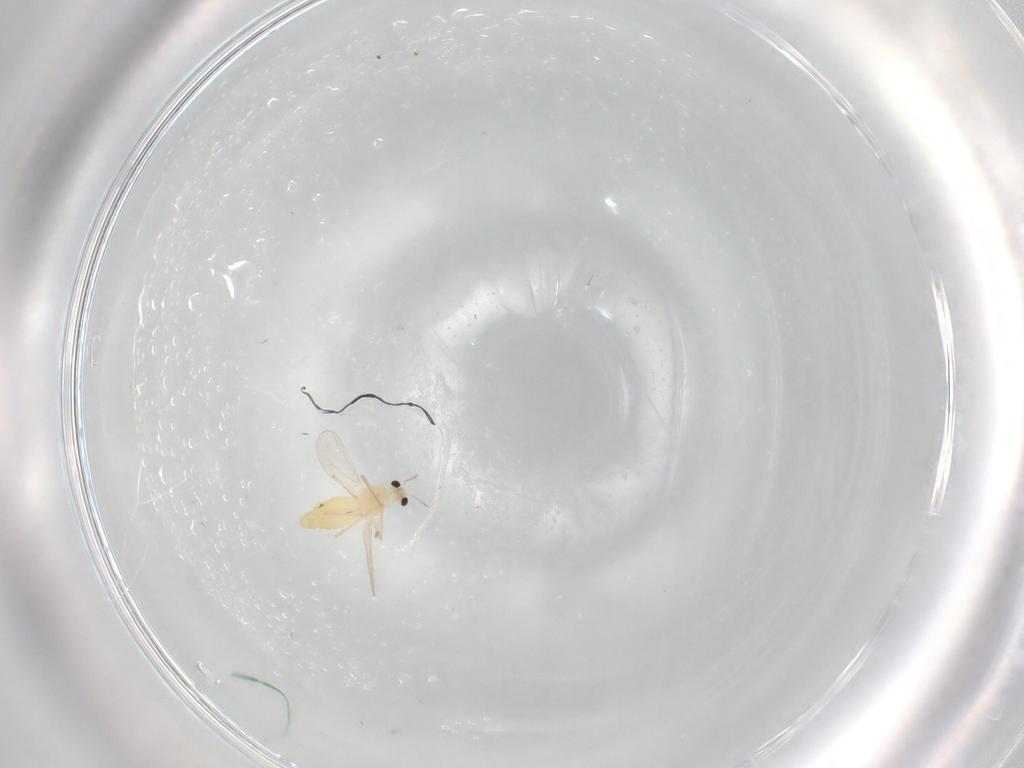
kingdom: Animalia
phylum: Arthropoda
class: Insecta
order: Diptera
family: Chironomidae
